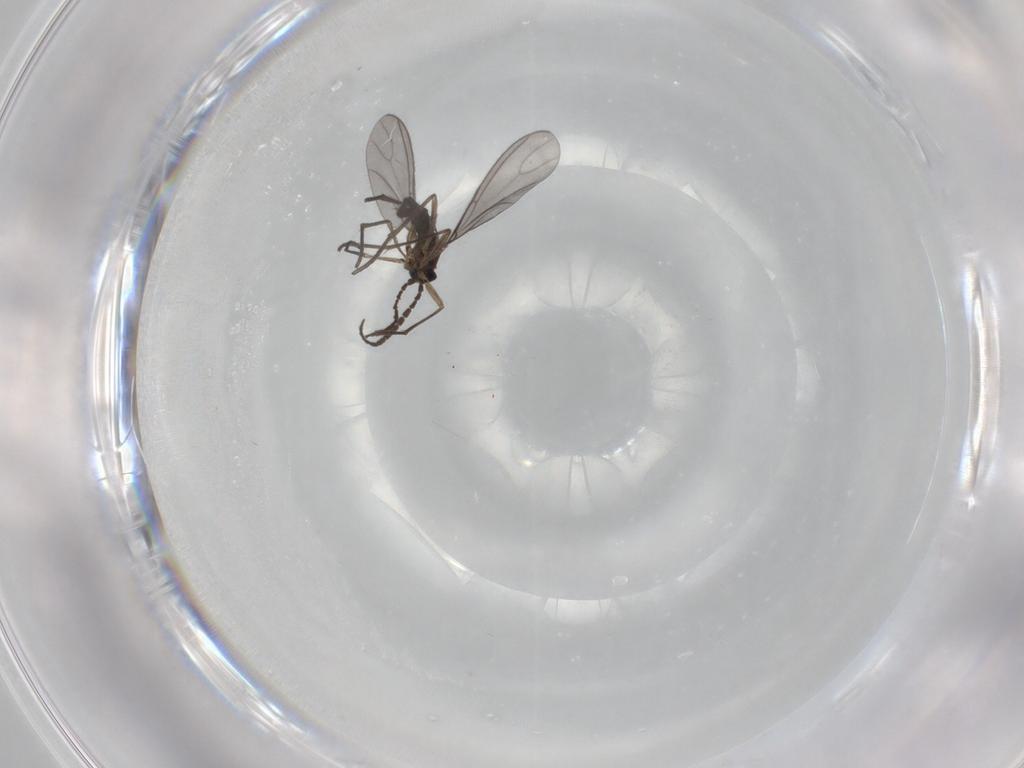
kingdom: Animalia
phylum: Arthropoda
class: Insecta
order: Diptera
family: Sciaridae
